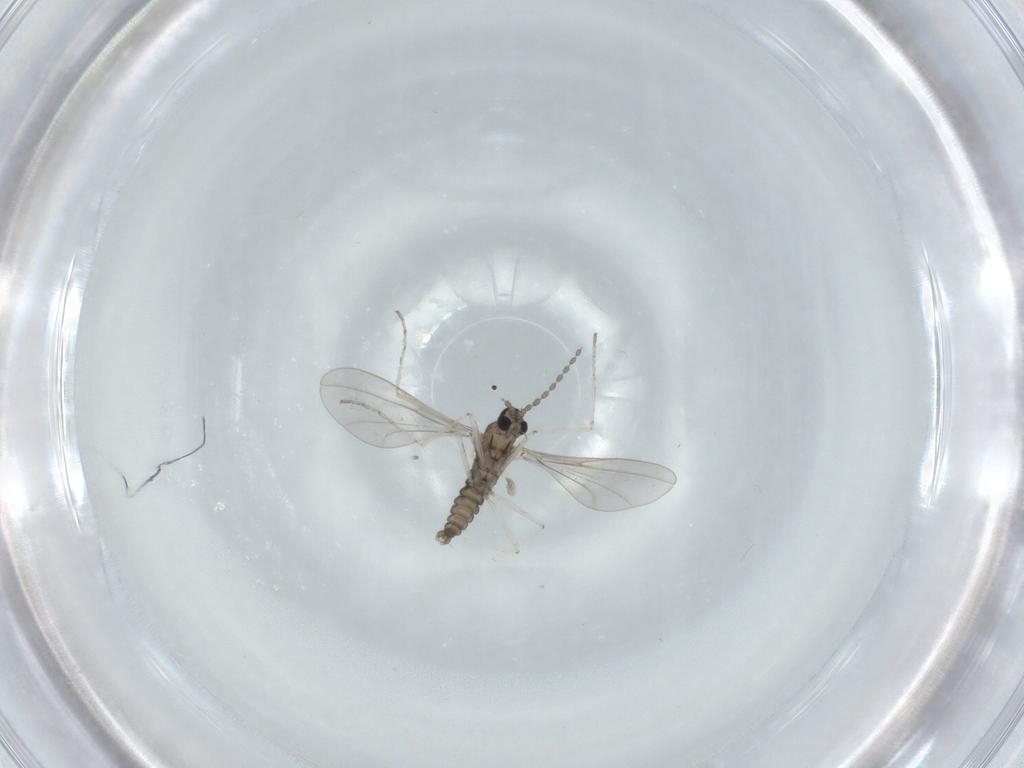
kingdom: Animalia
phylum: Arthropoda
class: Insecta
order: Diptera
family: Cecidomyiidae
